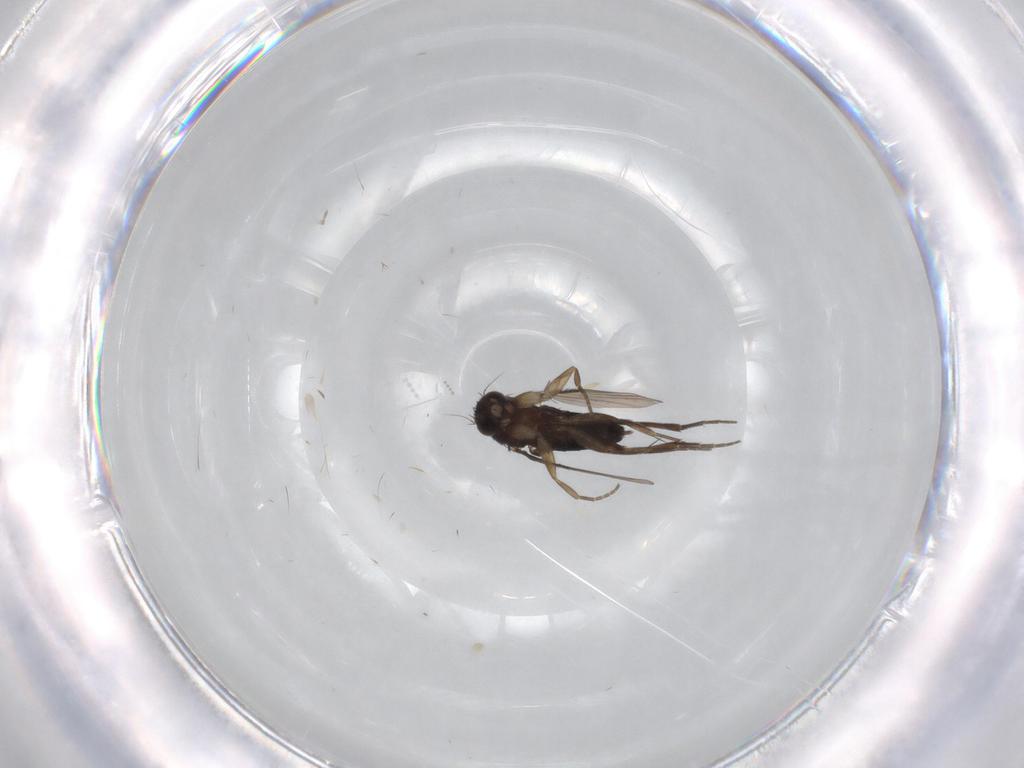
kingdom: Animalia
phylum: Arthropoda
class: Insecta
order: Diptera
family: Phoridae
